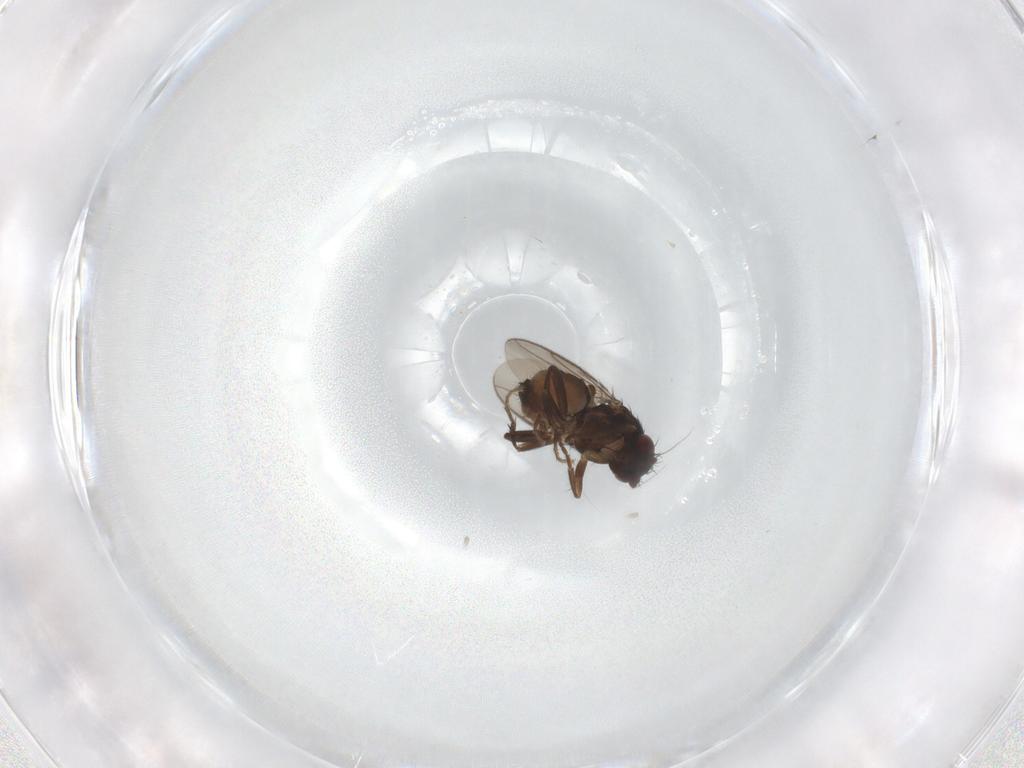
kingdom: Animalia
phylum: Arthropoda
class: Insecta
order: Diptera
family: Sphaeroceridae
